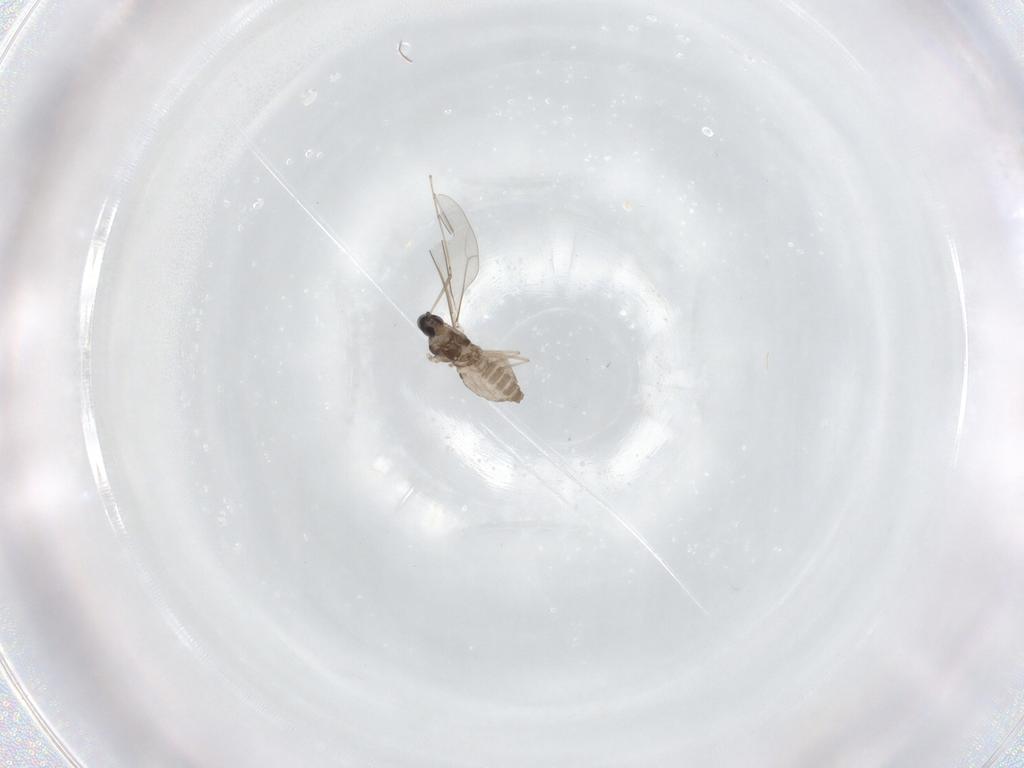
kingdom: Animalia
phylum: Arthropoda
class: Insecta
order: Diptera
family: Cecidomyiidae
